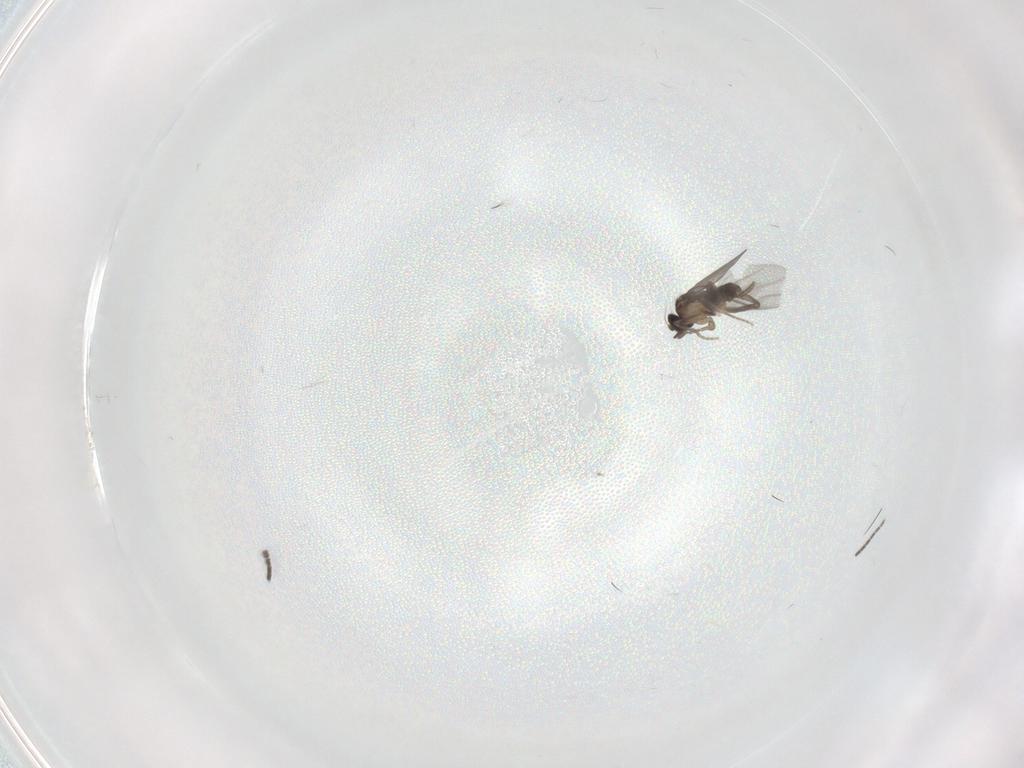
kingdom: Animalia
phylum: Arthropoda
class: Insecta
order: Diptera
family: Sciaridae
